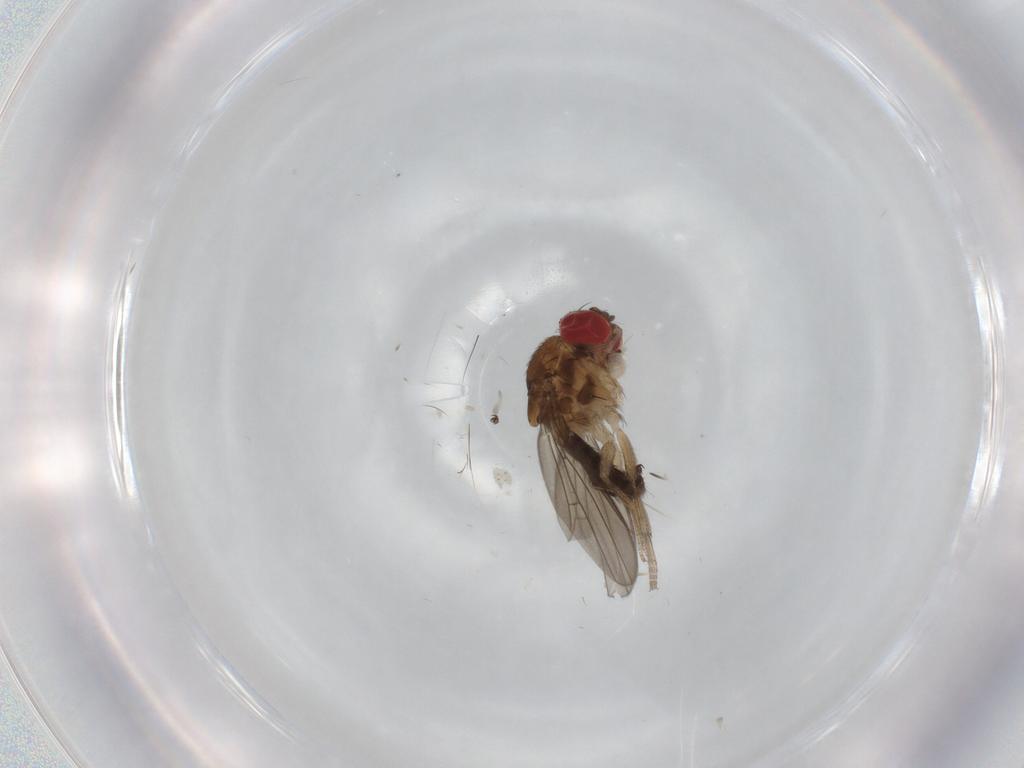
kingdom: Animalia
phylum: Arthropoda
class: Insecta
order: Diptera
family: Drosophilidae
